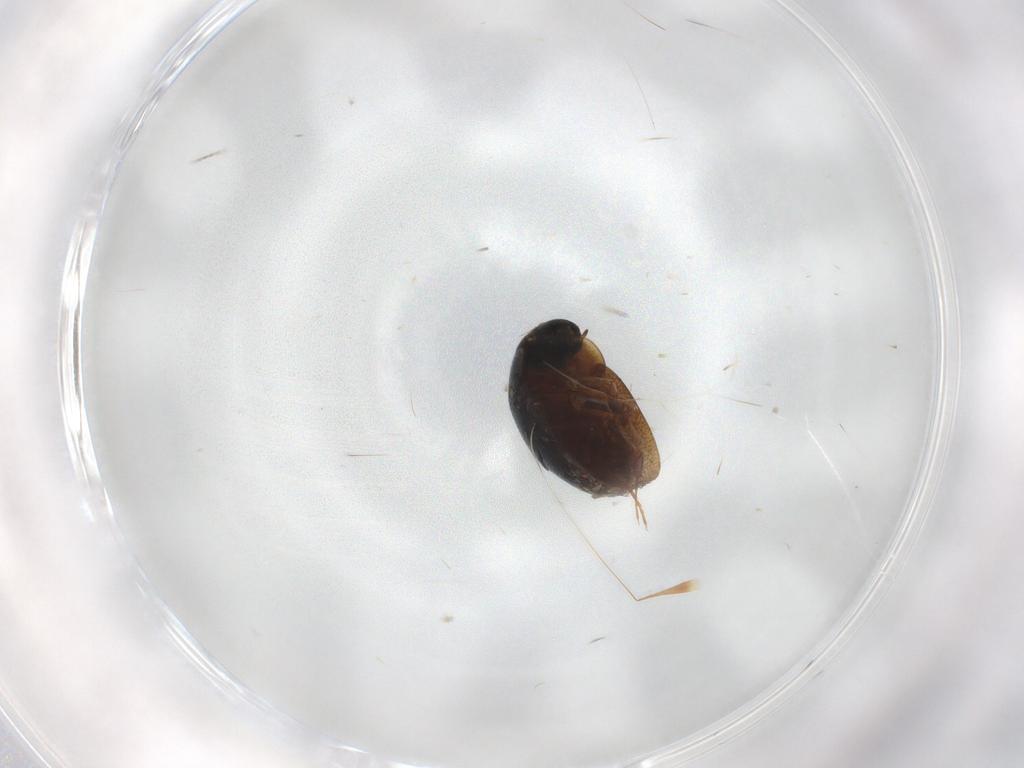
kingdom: Animalia
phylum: Arthropoda
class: Insecta
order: Coleoptera
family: Hydrophilidae
